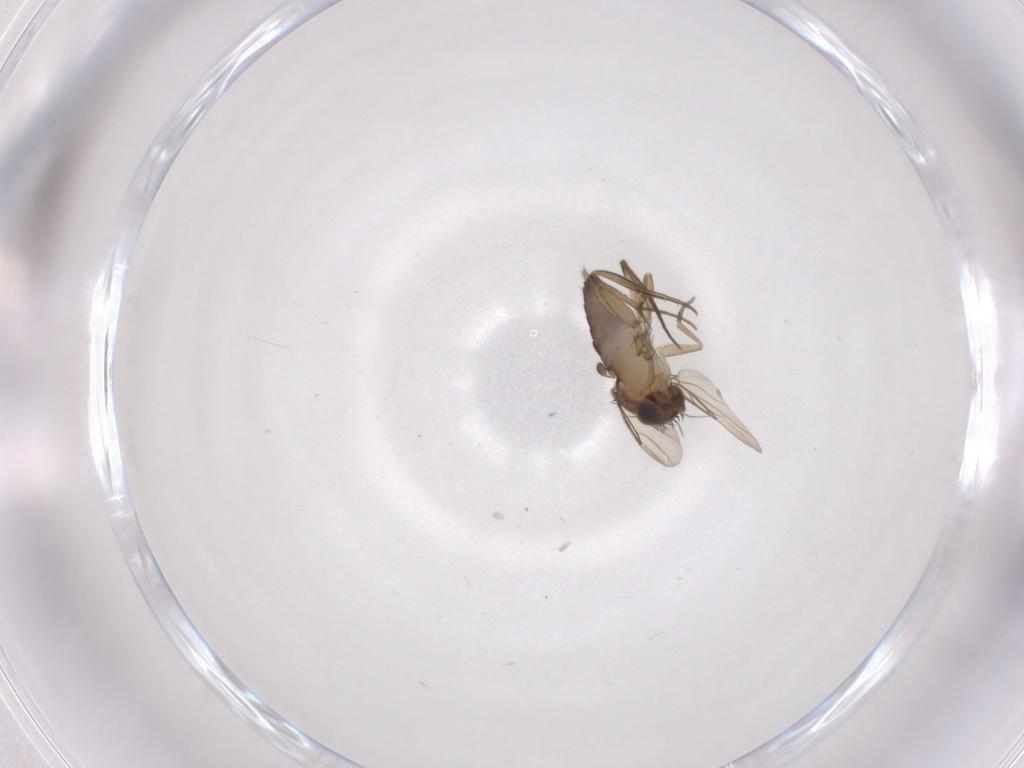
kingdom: Animalia
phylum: Arthropoda
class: Insecta
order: Diptera
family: Phoridae
